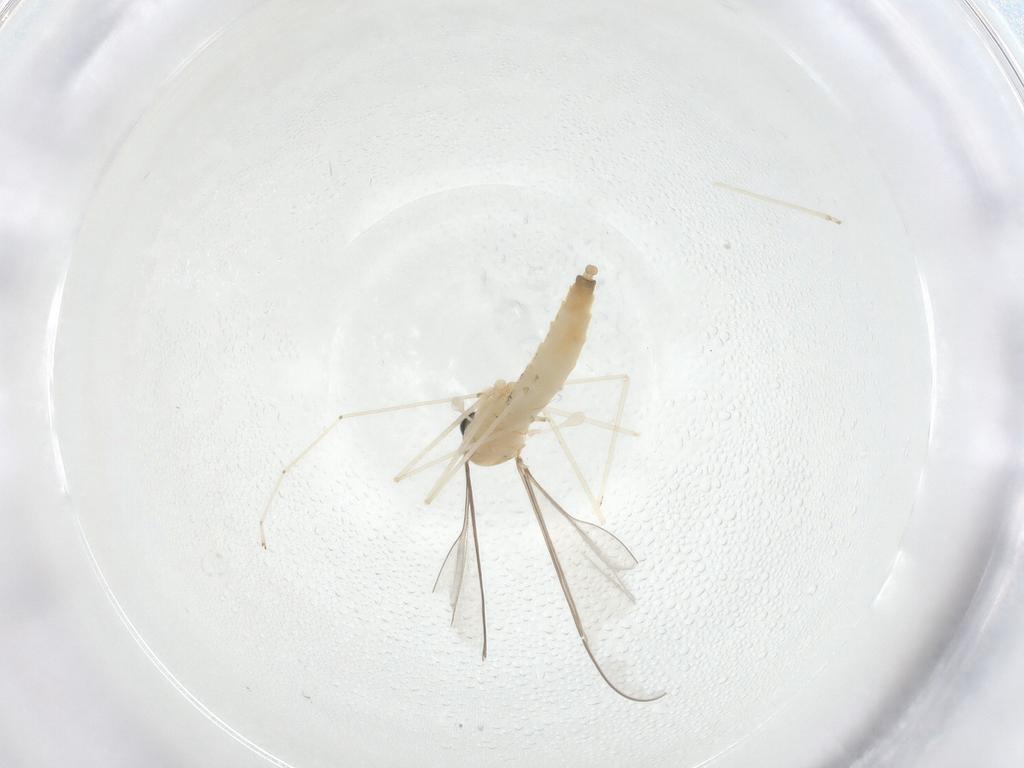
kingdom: Animalia
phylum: Arthropoda
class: Insecta
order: Diptera
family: Cecidomyiidae
